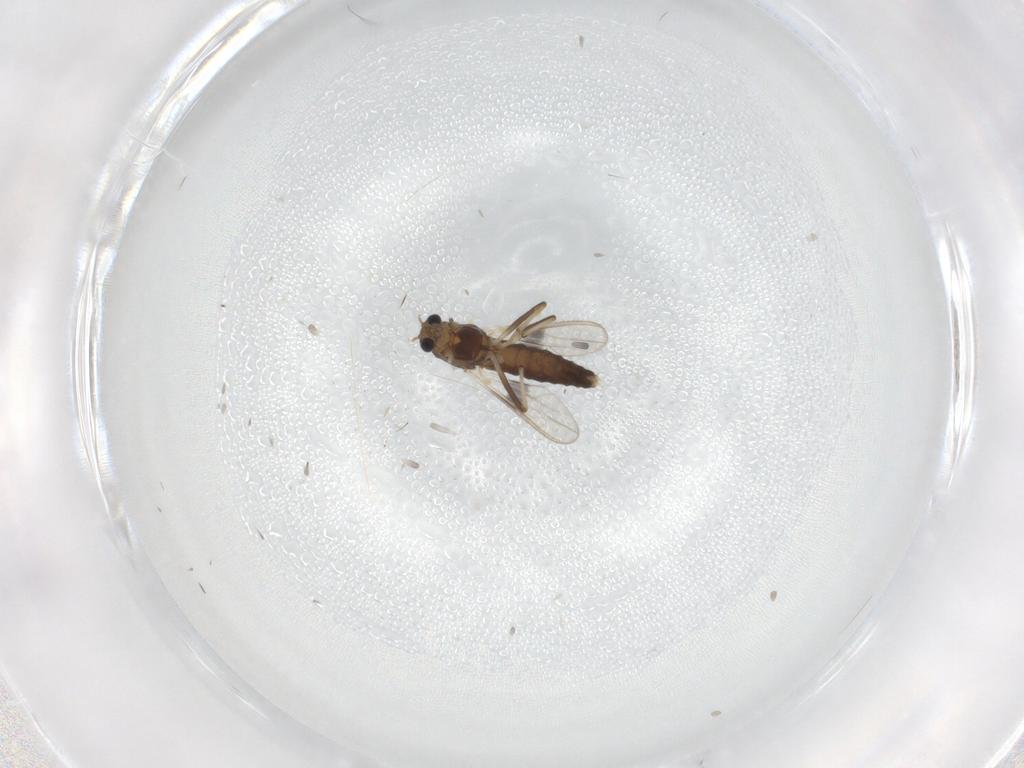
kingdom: Animalia
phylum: Arthropoda
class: Insecta
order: Diptera
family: Chironomidae
